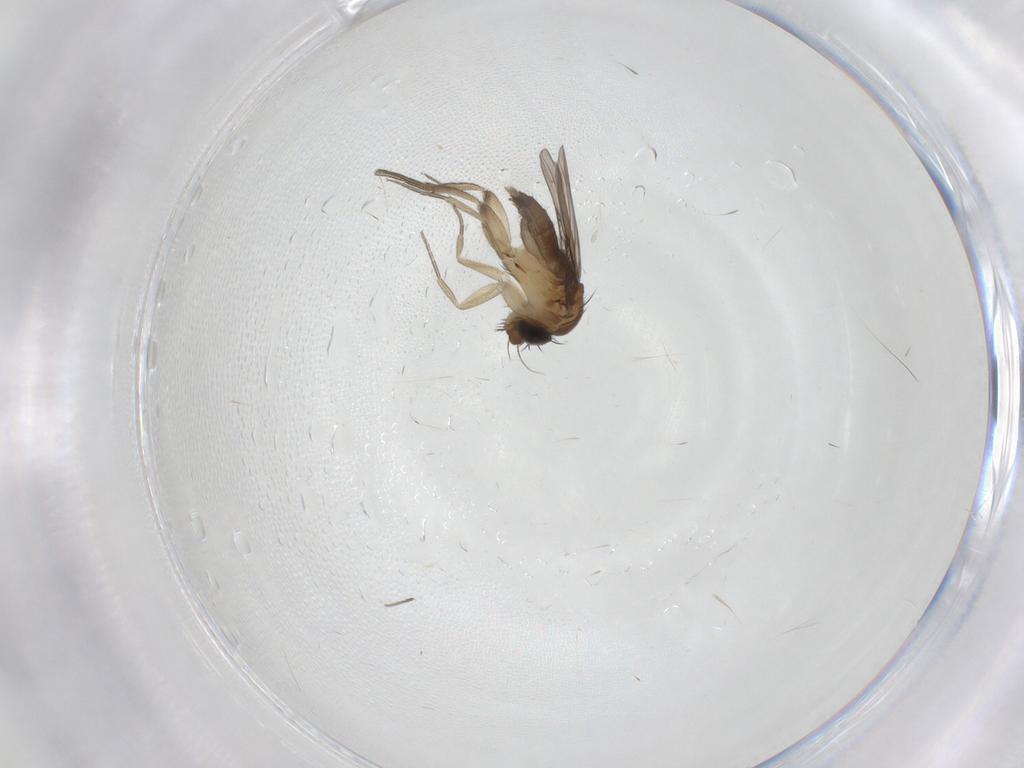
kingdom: Animalia
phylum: Arthropoda
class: Insecta
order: Diptera
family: Phoridae
